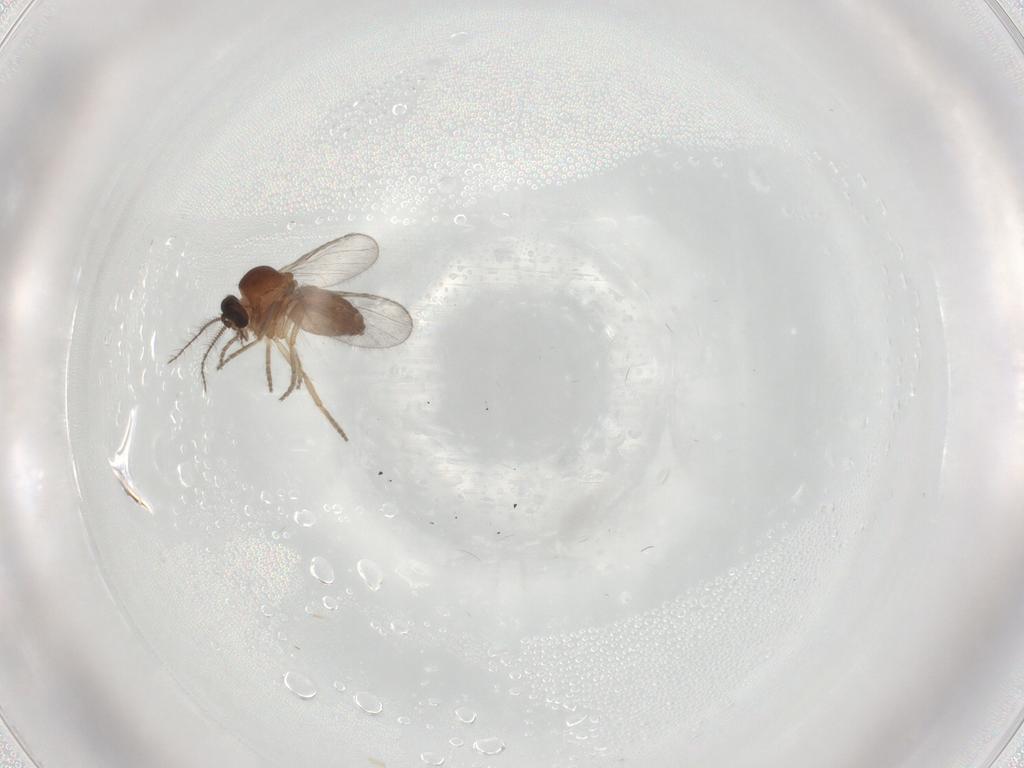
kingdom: Animalia
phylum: Arthropoda
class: Insecta
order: Diptera
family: Ceratopogonidae
